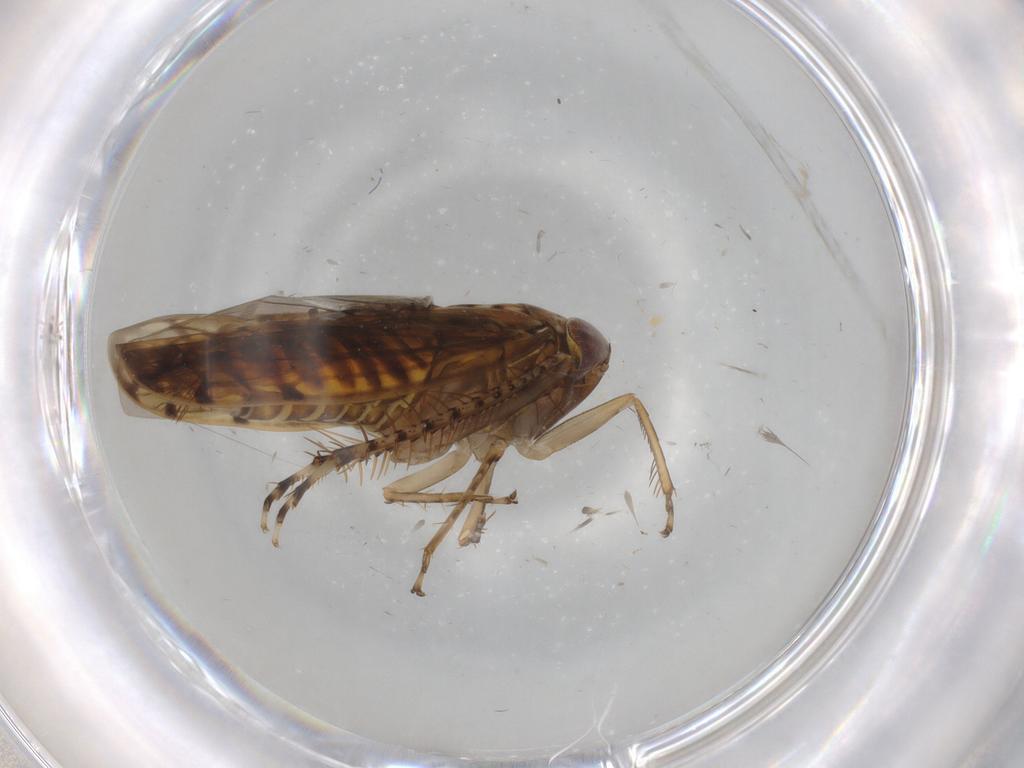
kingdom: Animalia
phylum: Arthropoda
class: Insecta
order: Hemiptera
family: Cicadellidae
